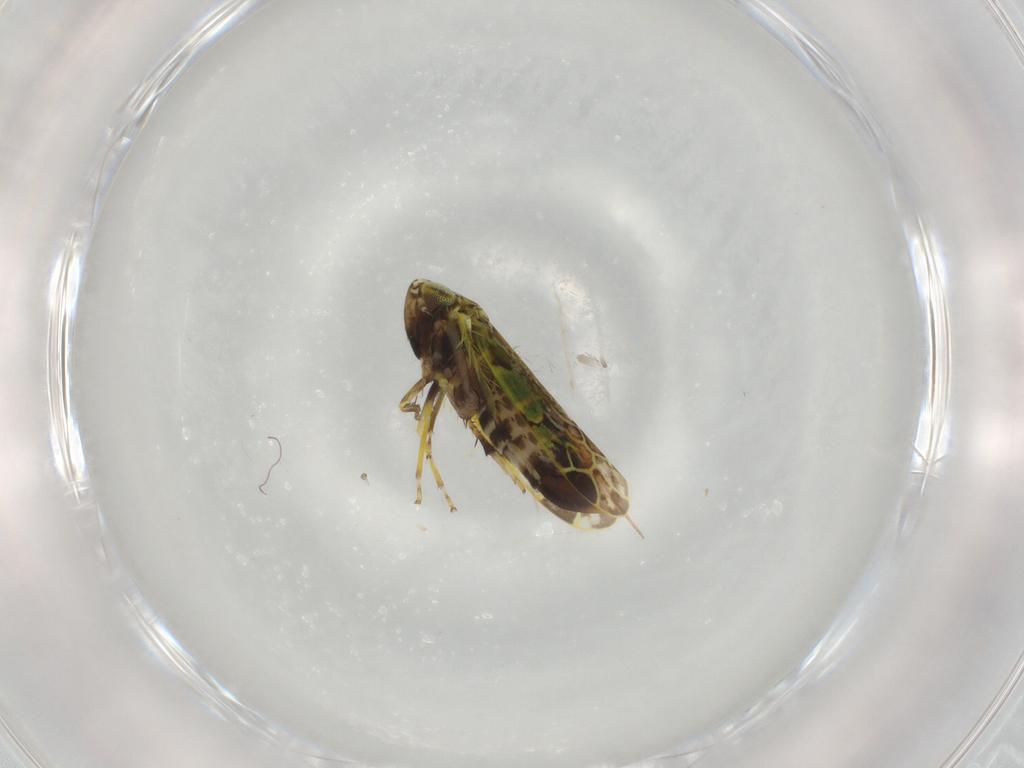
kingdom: Animalia
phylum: Arthropoda
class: Insecta
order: Hemiptera
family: Cicadellidae
